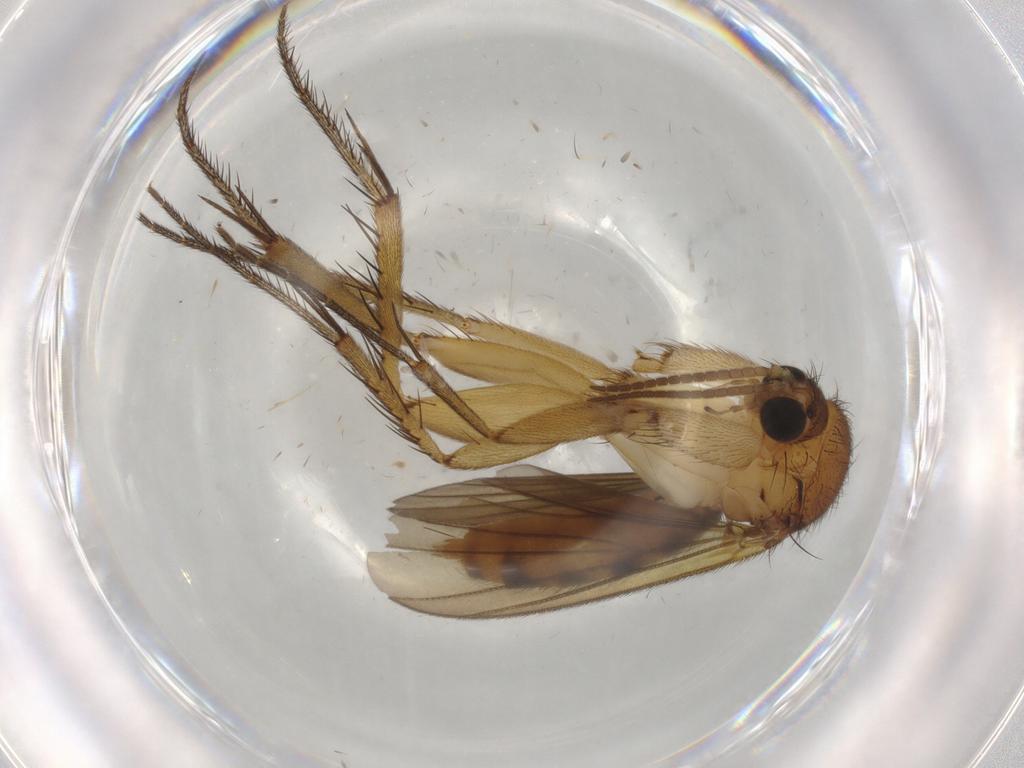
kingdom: Animalia
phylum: Arthropoda
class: Insecta
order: Diptera
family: Mycetophilidae
